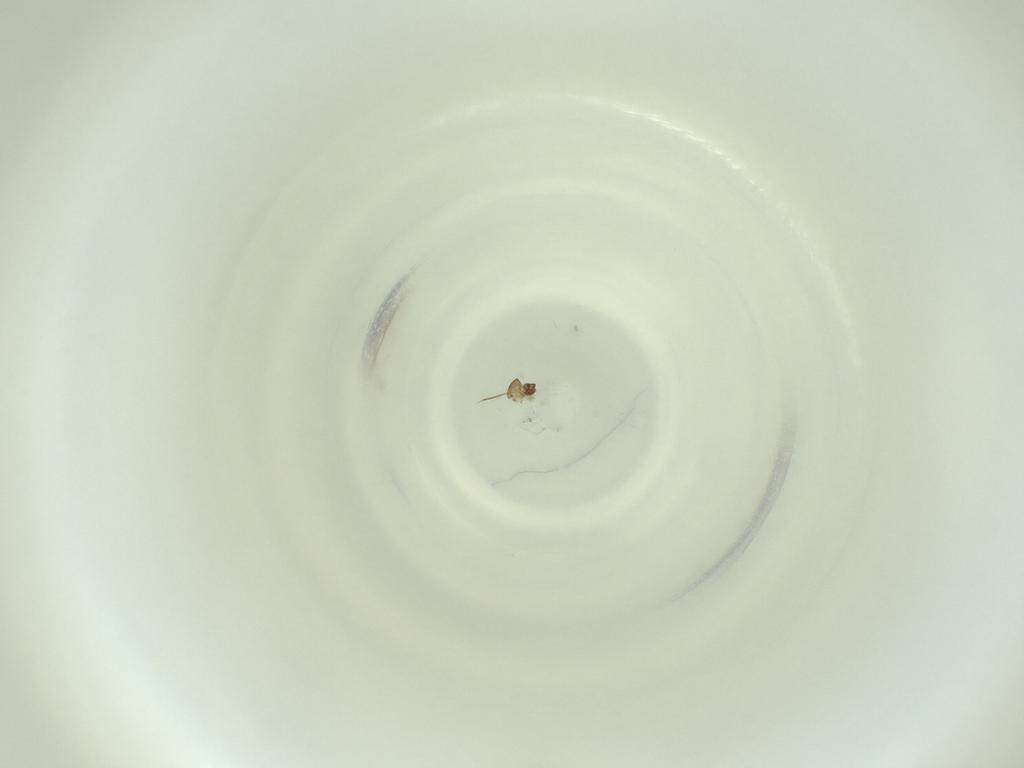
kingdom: Animalia
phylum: Arthropoda
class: Insecta
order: Diptera
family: Cecidomyiidae
